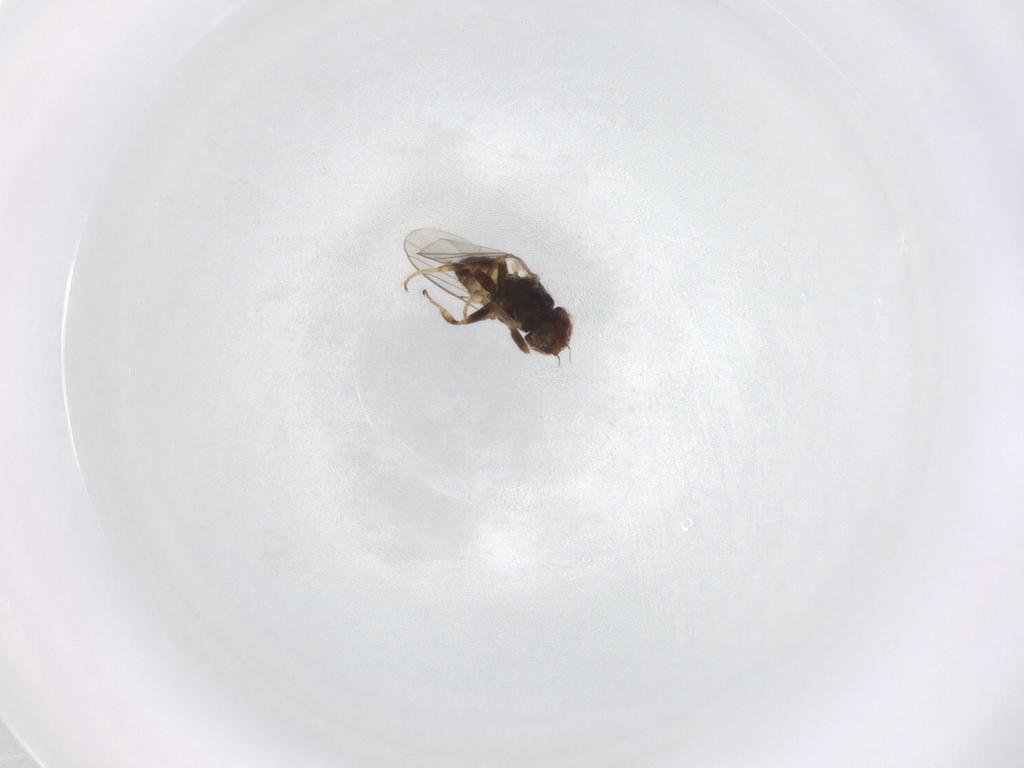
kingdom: Animalia
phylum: Arthropoda
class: Insecta
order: Diptera
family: Chloropidae
